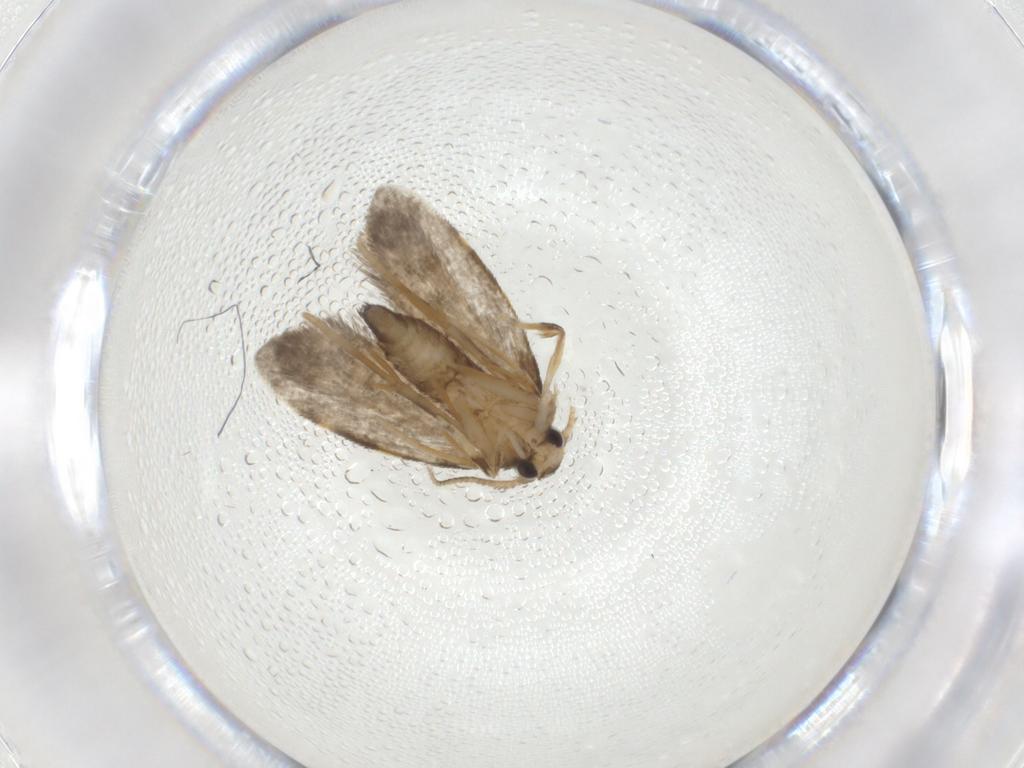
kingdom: Animalia
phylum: Arthropoda
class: Insecta
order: Lepidoptera
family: Psychidae
